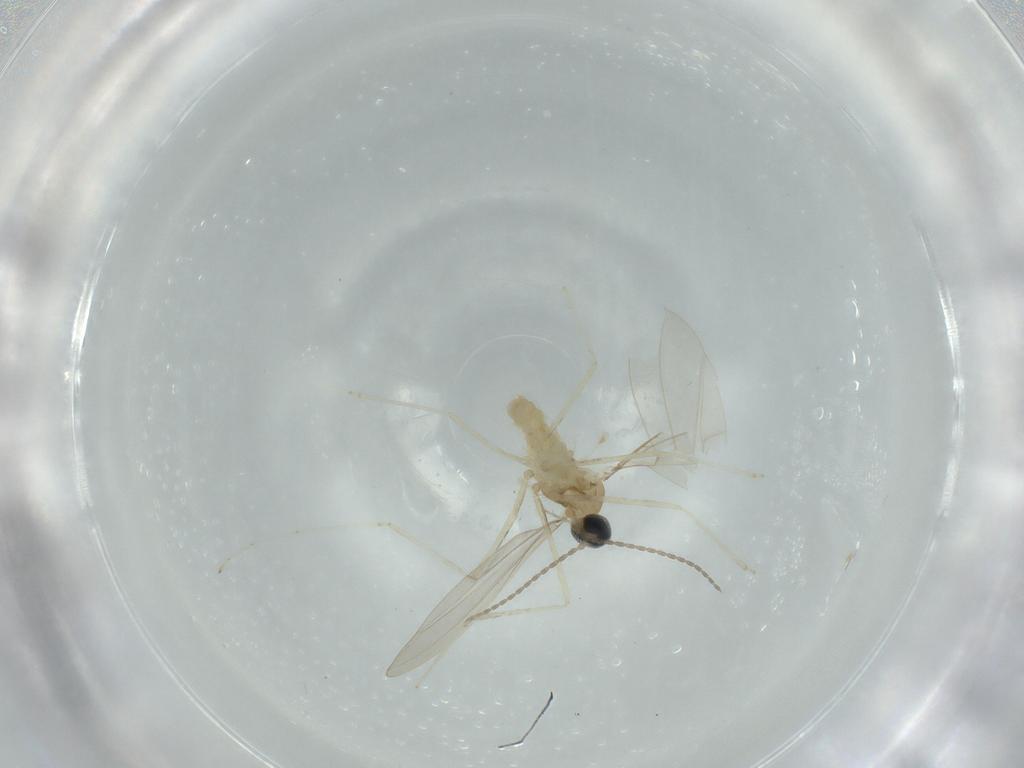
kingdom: Animalia
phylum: Arthropoda
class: Insecta
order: Diptera
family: Cecidomyiidae
